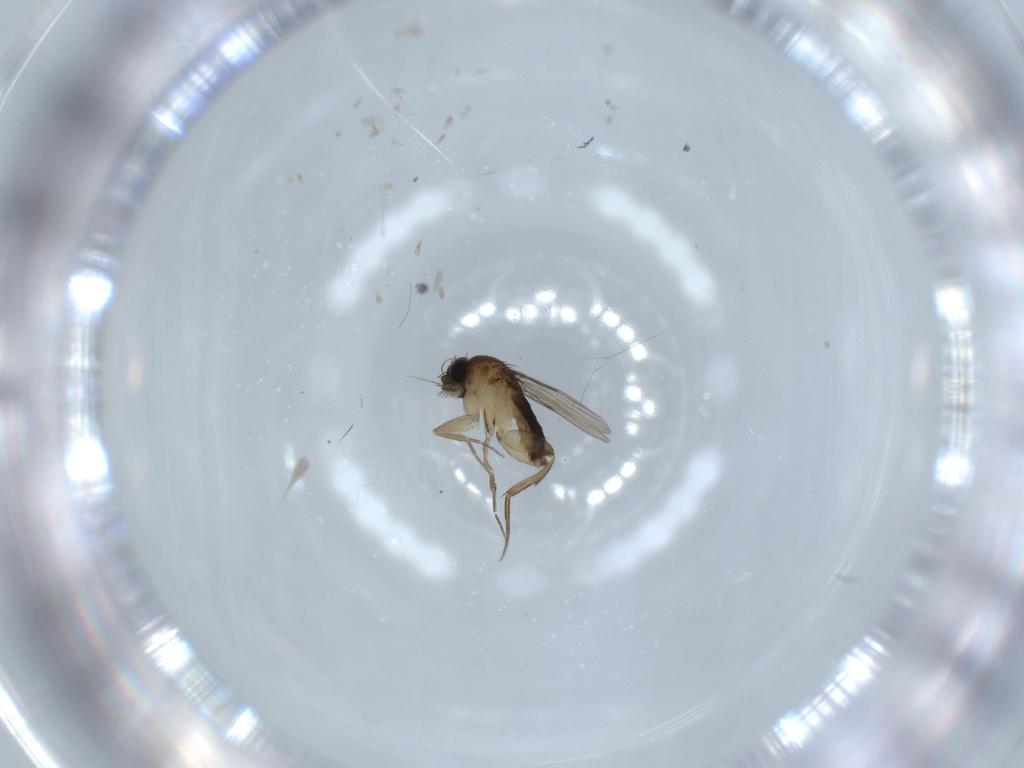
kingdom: Animalia
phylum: Arthropoda
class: Insecta
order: Diptera
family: Phoridae
